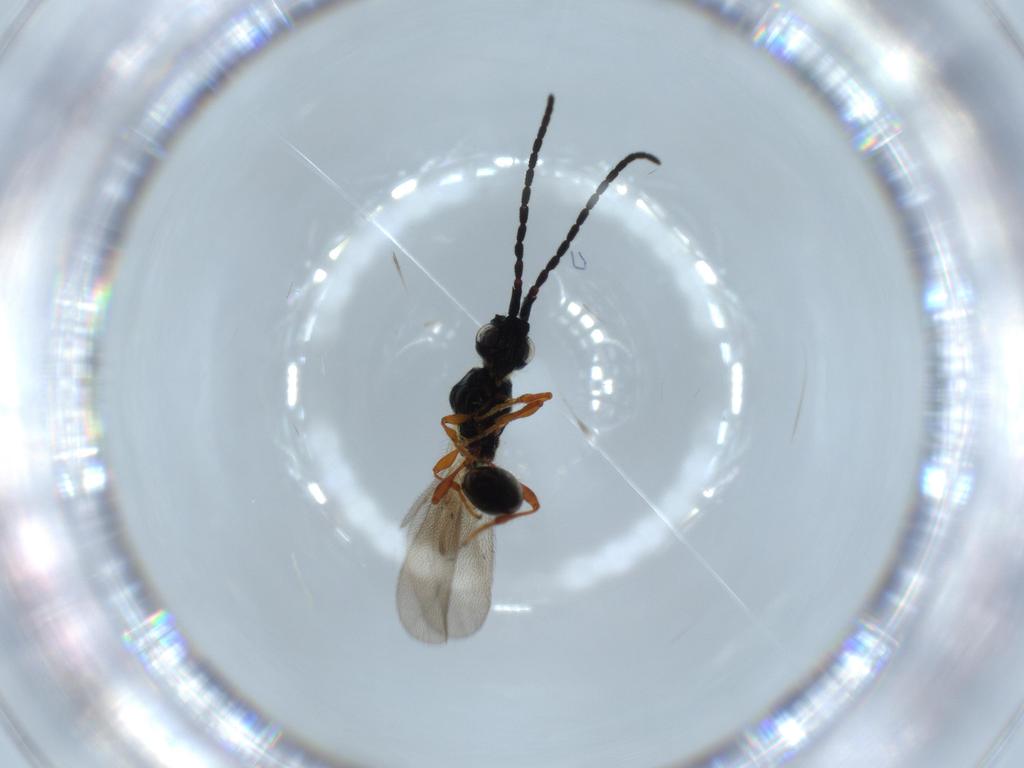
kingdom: Animalia
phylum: Arthropoda
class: Insecta
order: Hymenoptera
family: Diapriidae
